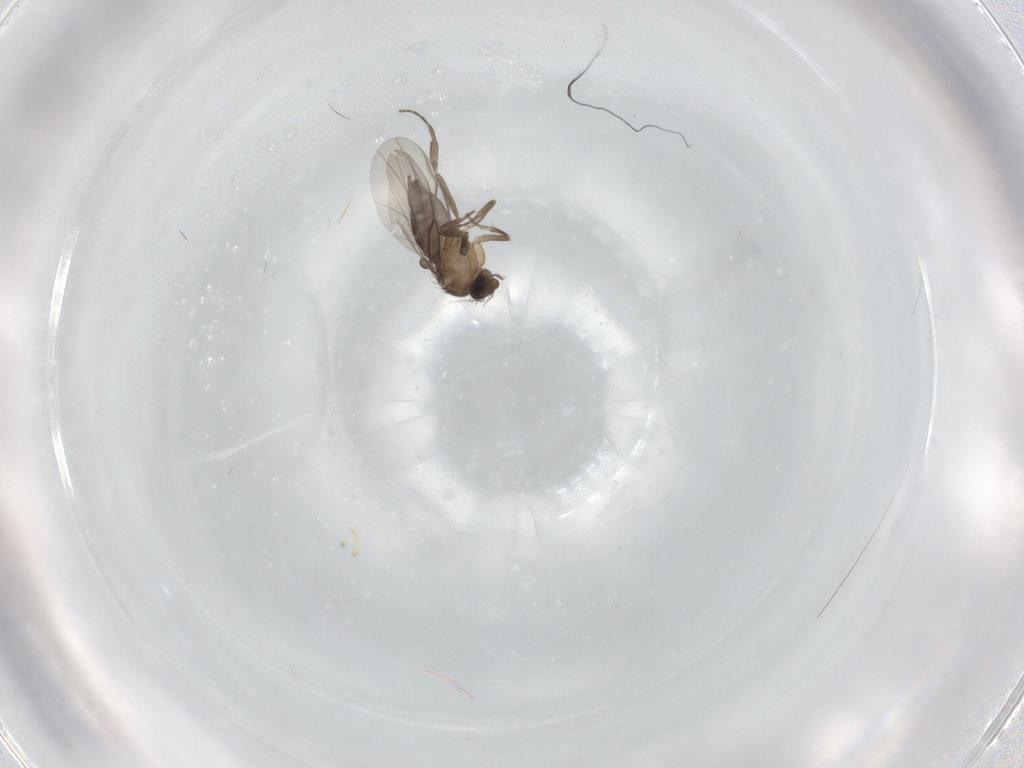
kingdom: Animalia
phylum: Arthropoda
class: Insecta
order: Diptera
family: Phoridae
